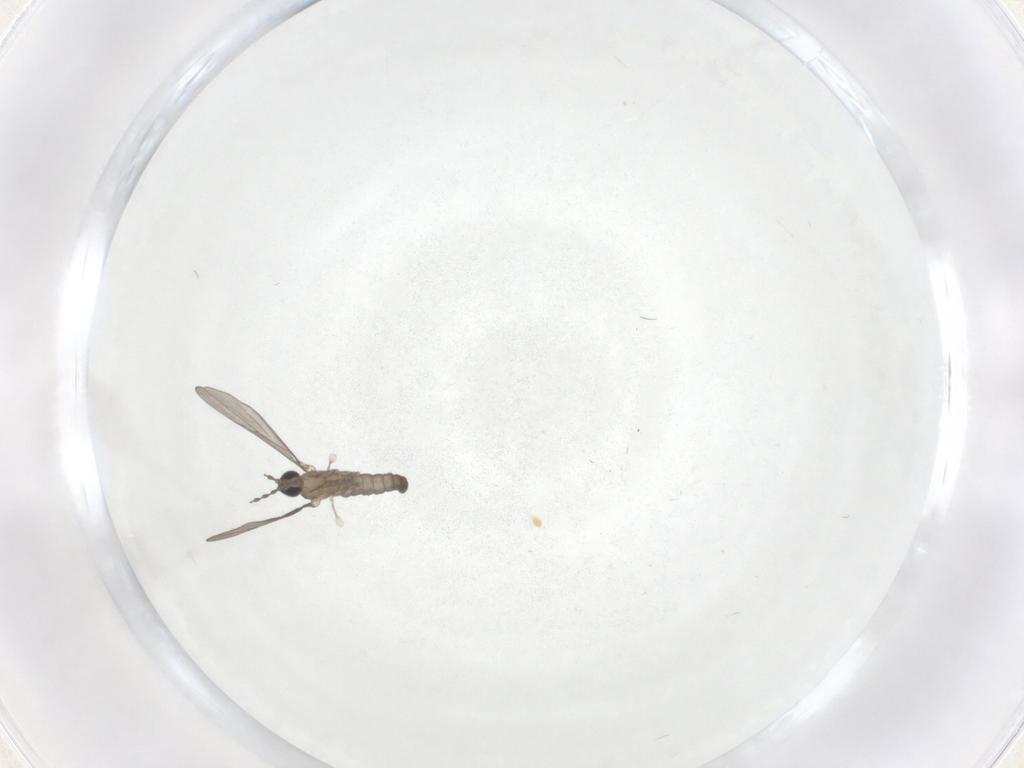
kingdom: Animalia
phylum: Arthropoda
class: Insecta
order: Diptera
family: Cecidomyiidae
